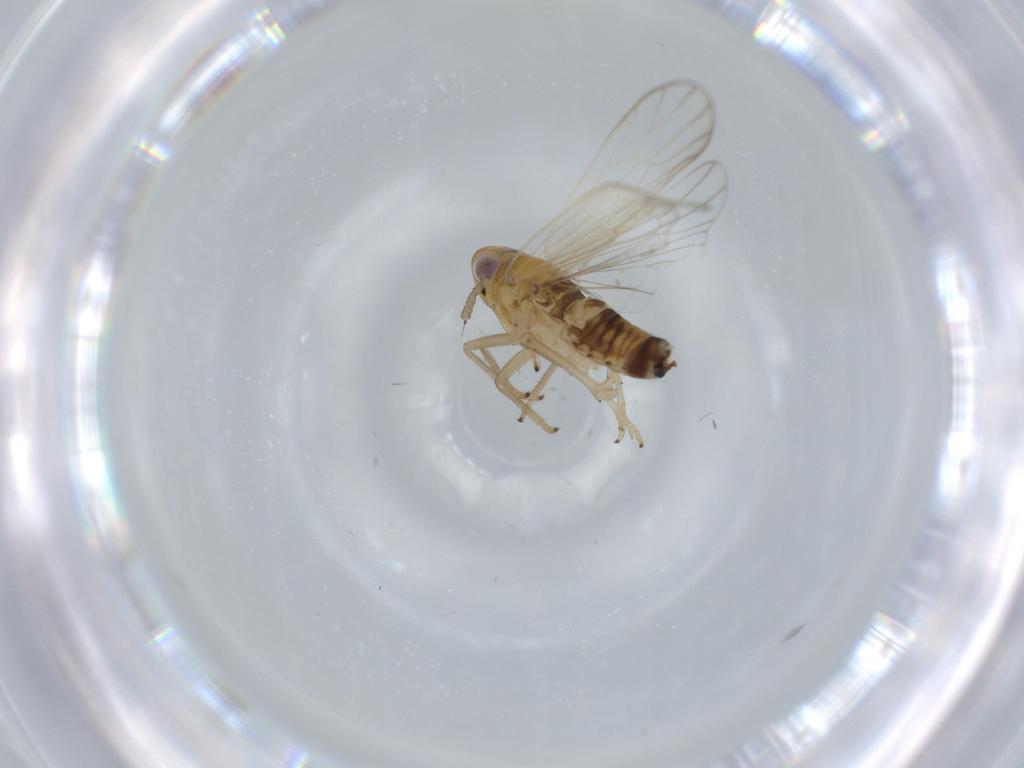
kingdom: Animalia
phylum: Arthropoda
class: Insecta
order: Hemiptera
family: Delphacidae
